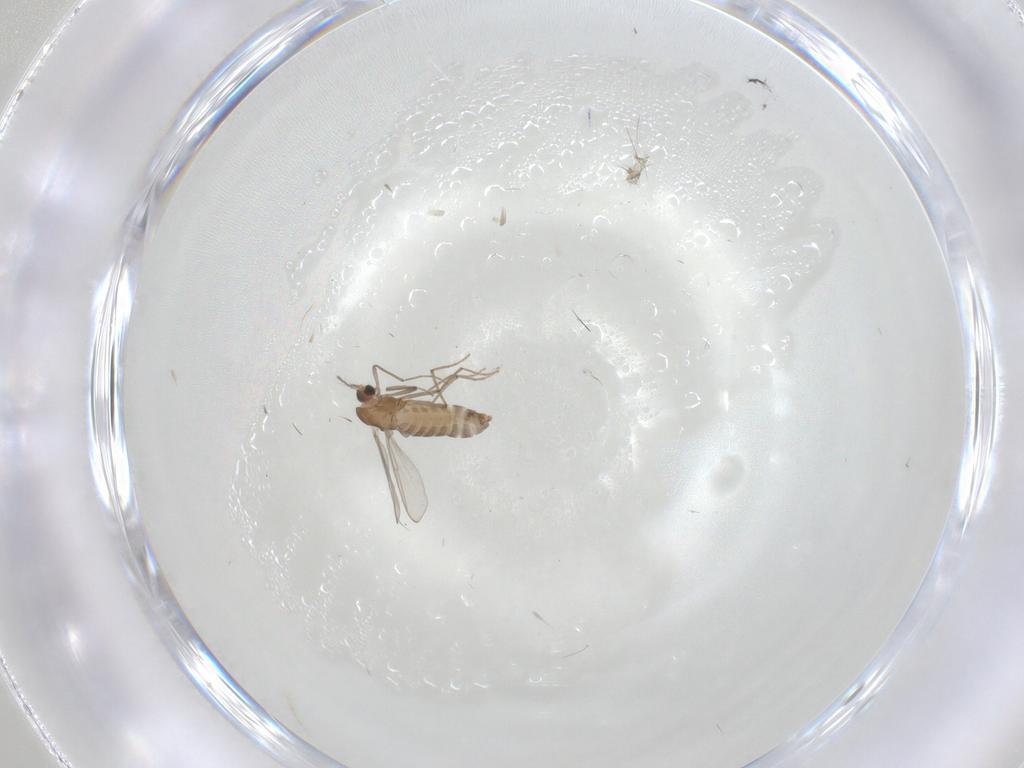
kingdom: Animalia
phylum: Arthropoda
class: Insecta
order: Diptera
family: Chironomidae
